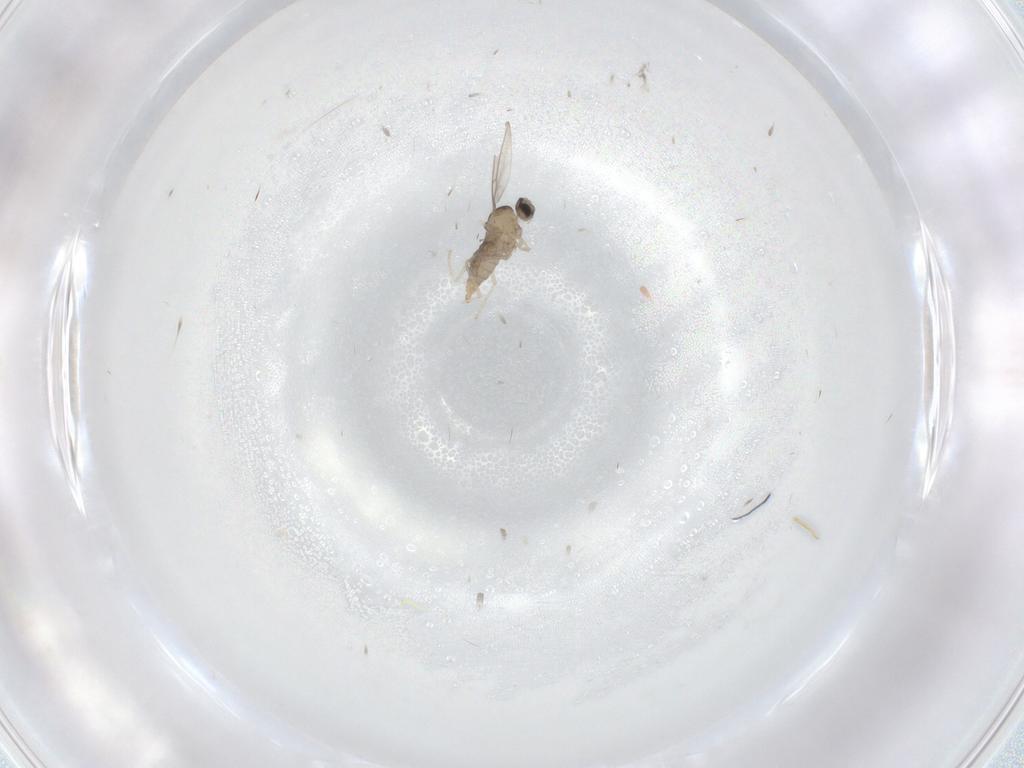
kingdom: Animalia
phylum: Arthropoda
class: Insecta
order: Diptera
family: Cecidomyiidae
